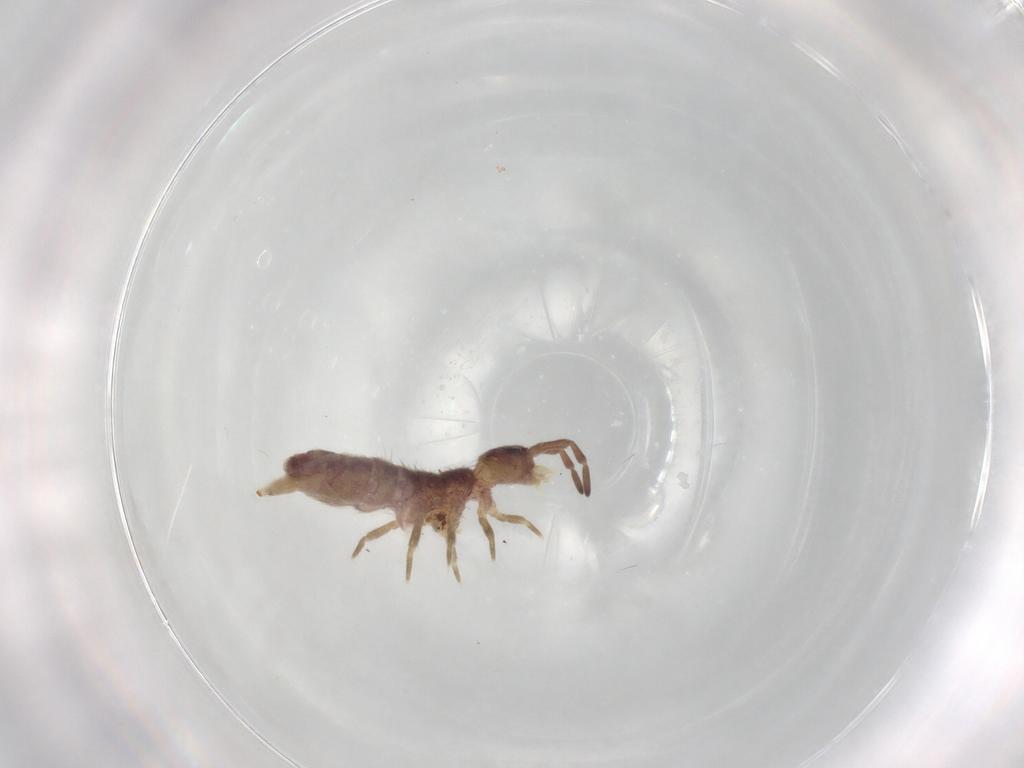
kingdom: Animalia
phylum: Arthropoda
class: Collembola
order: Entomobryomorpha
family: Isotomidae
